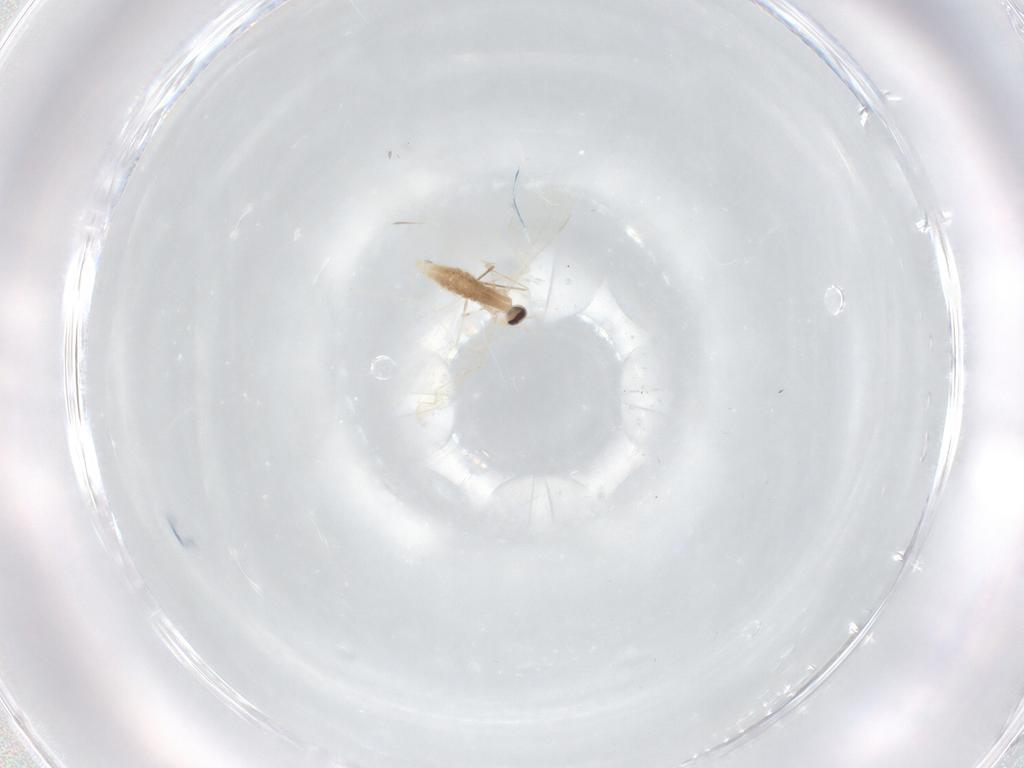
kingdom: Animalia
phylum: Arthropoda
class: Insecta
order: Diptera
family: Cecidomyiidae
